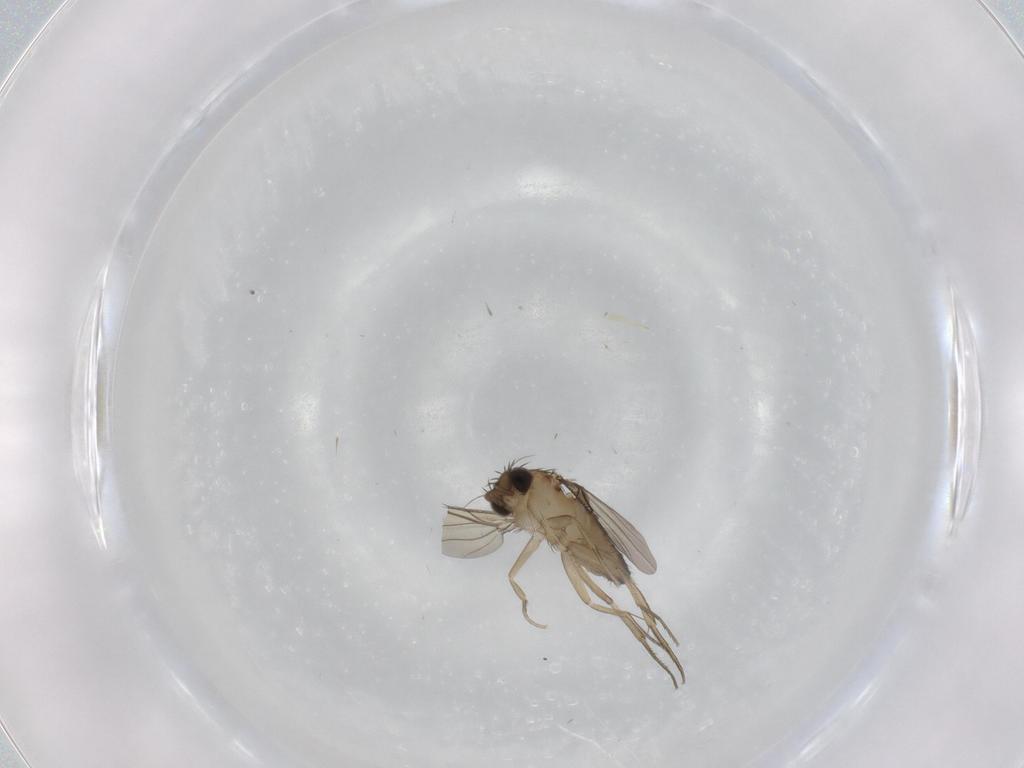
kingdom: Animalia
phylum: Arthropoda
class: Insecta
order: Diptera
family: Phoridae
